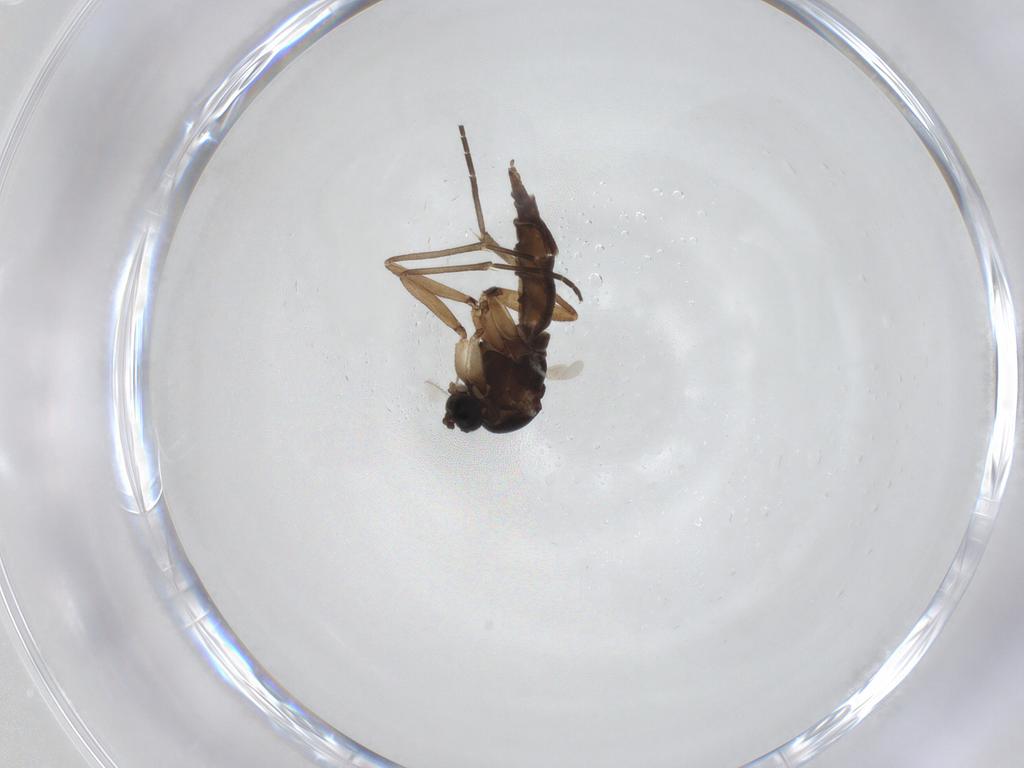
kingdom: Animalia
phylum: Arthropoda
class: Insecta
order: Diptera
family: Sciaridae
